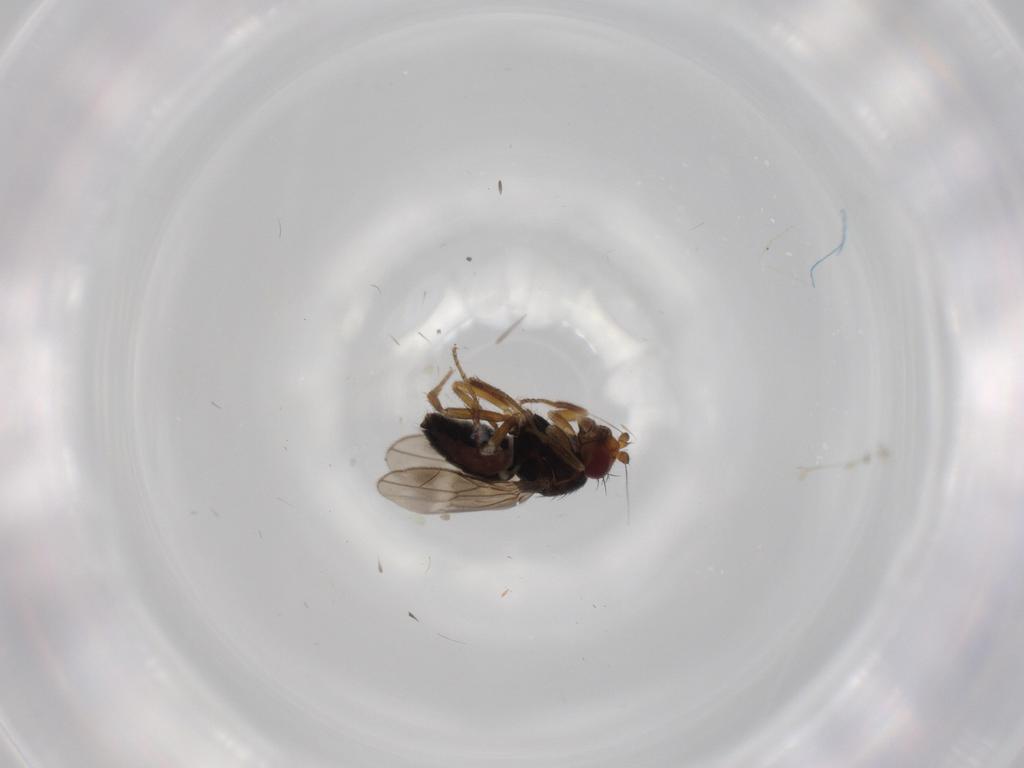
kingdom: Animalia
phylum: Arthropoda
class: Insecta
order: Diptera
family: Sphaeroceridae
